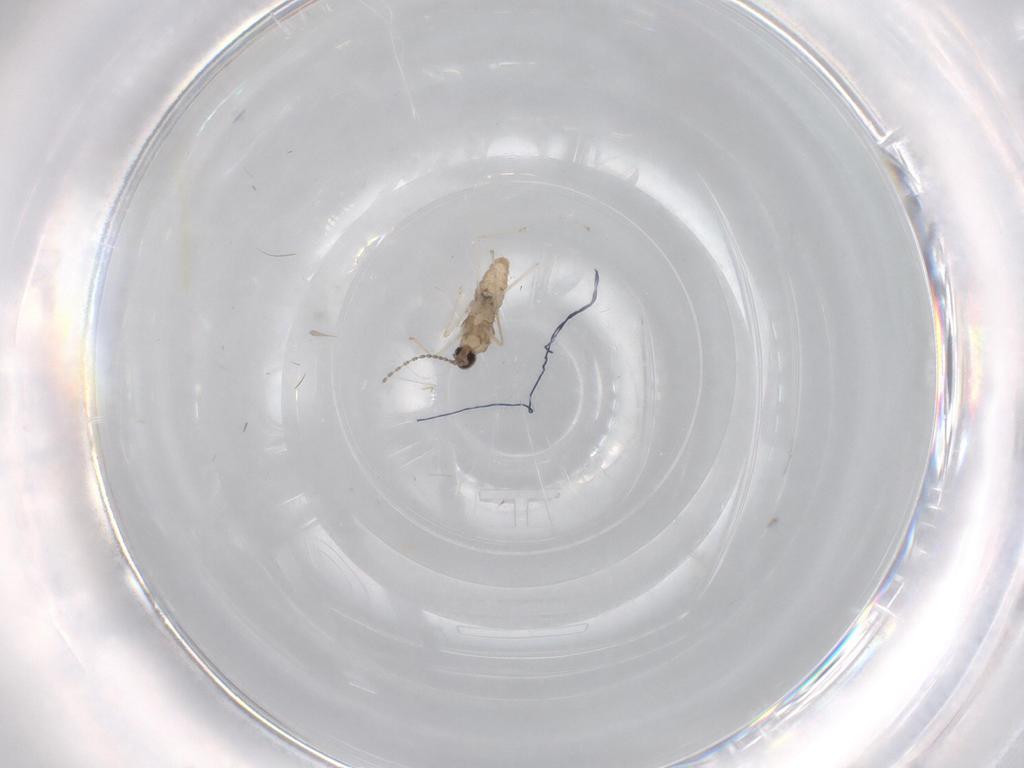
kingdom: Animalia
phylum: Arthropoda
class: Insecta
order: Diptera
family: Cecidomyiidae
